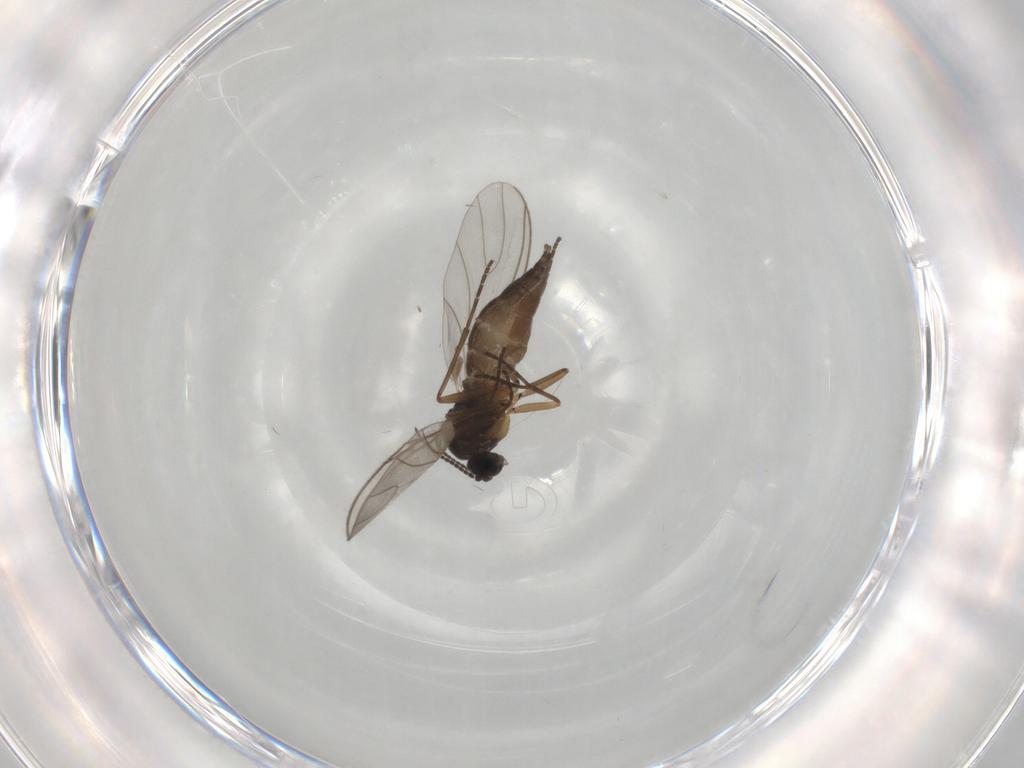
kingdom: Animalia
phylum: Arthropoda
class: Insecta
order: Diptera
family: Sciaridae
